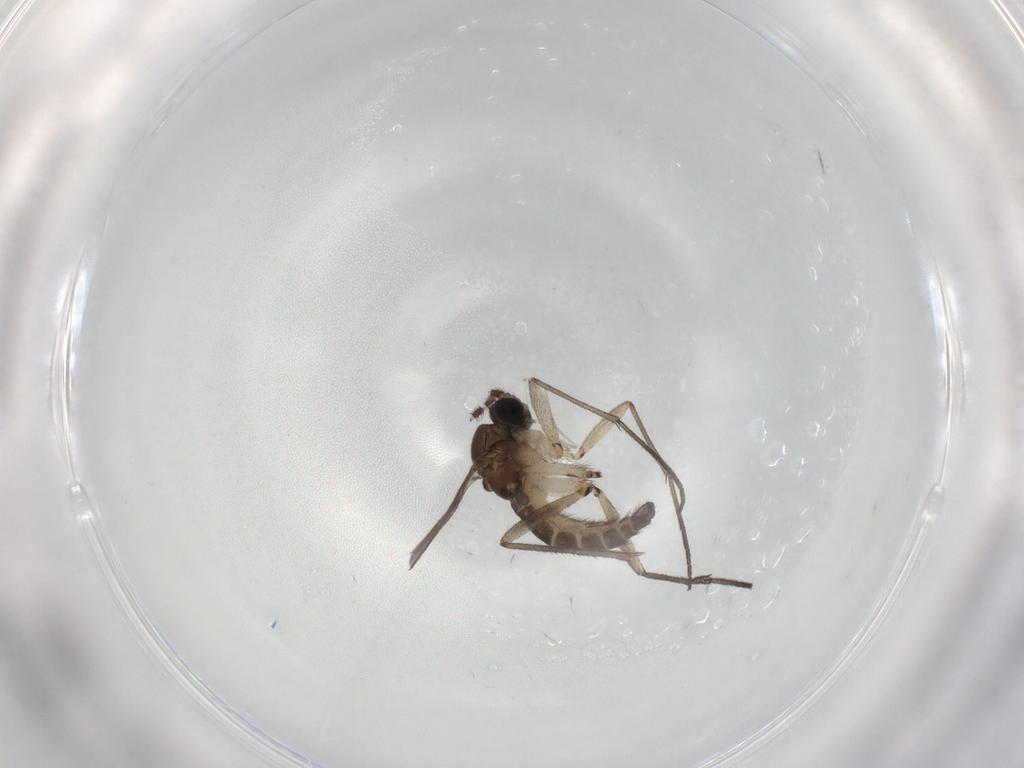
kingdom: Animalia
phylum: Arthropoda
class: Insecta
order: Diptera
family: Sciaridae
